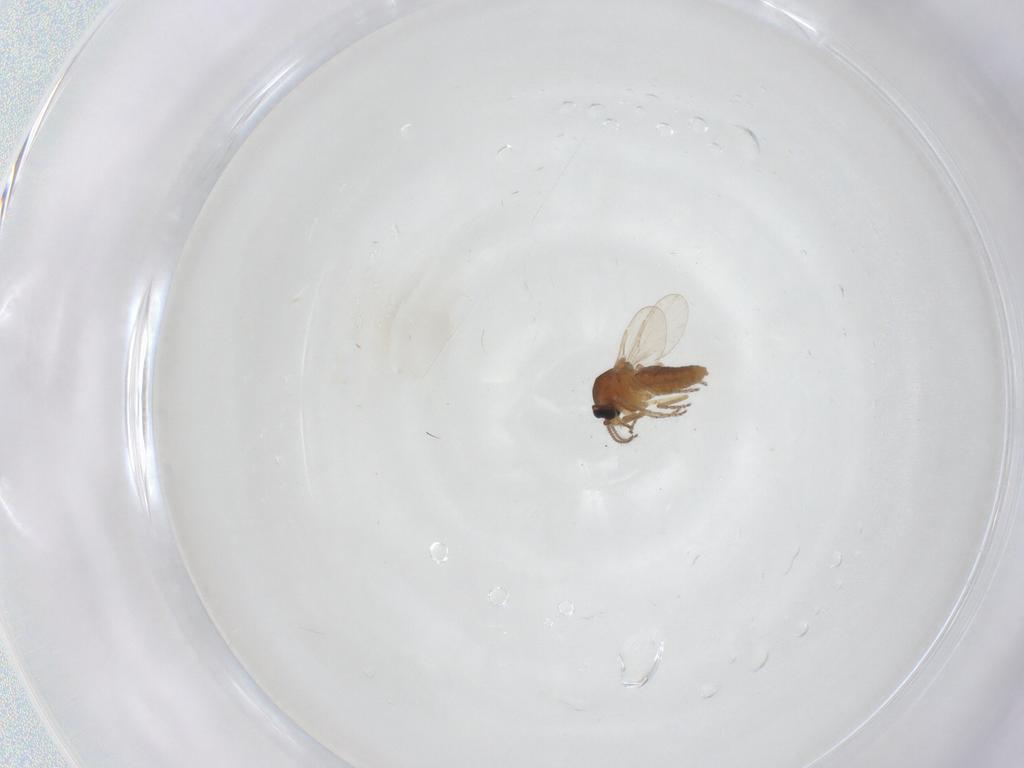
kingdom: Animalia
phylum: Arthropoda
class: Insecta
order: Diptera
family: Ceratopogonidae
